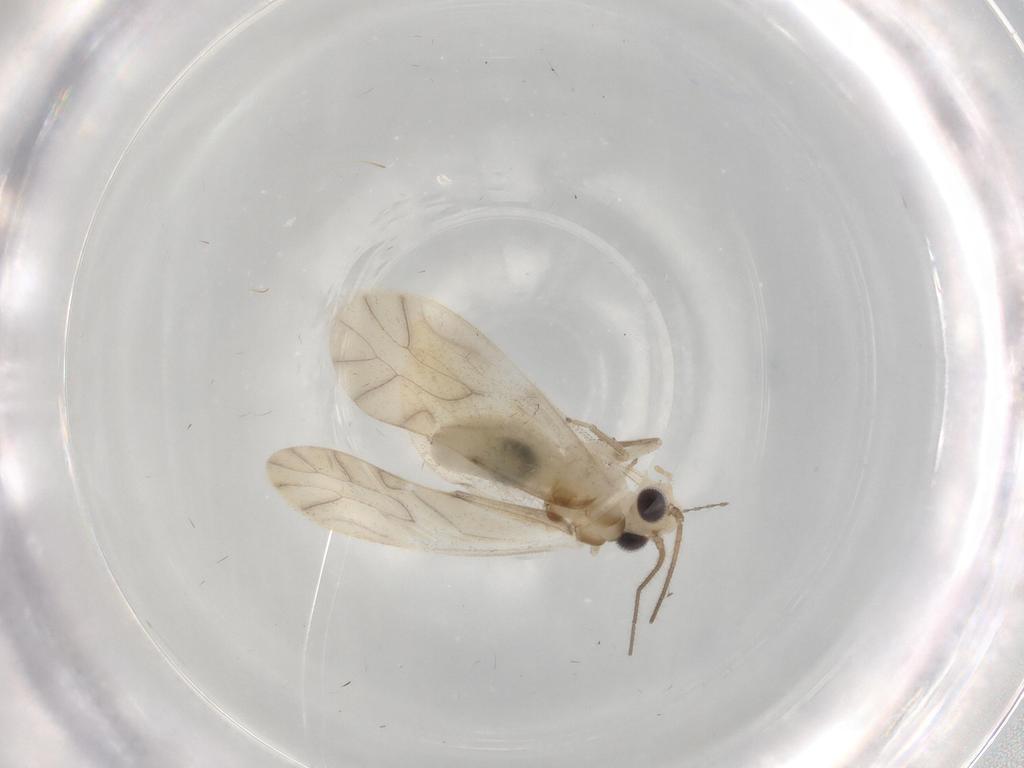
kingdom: Animalia
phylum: Arthropoda
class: Insecta
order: Psocodea
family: Caeciliusidae
